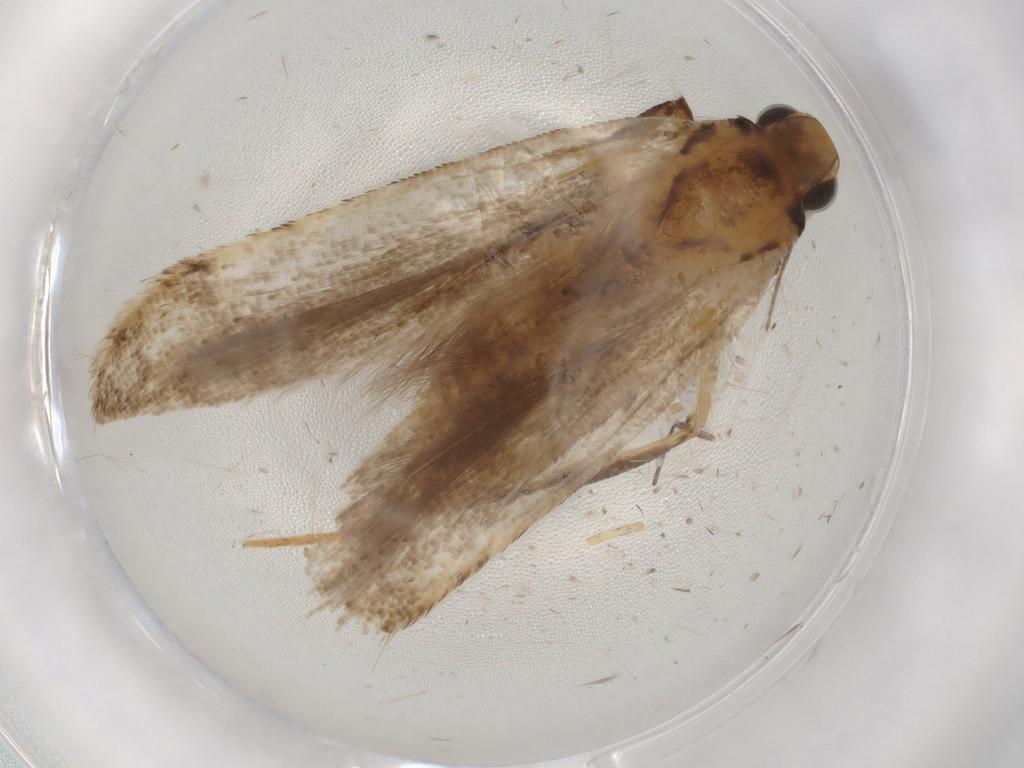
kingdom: Animalia
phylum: Arthropoda
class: Insecta
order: Lepidoptera
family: Gelechiidae
